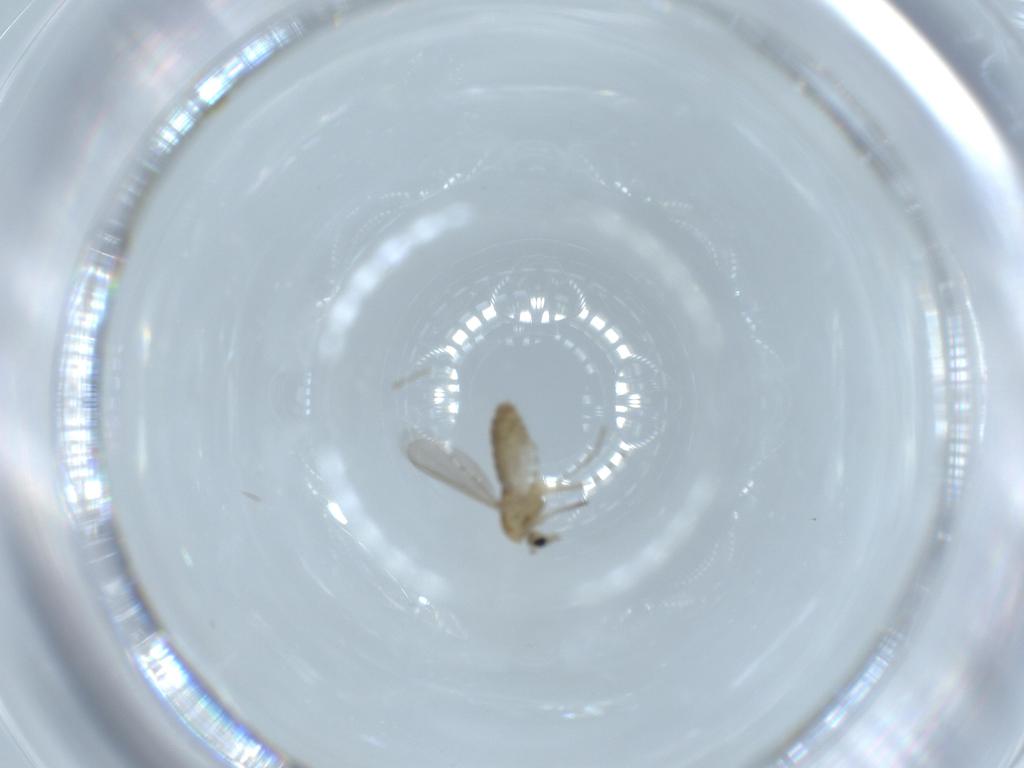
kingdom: Animalia
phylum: Arthropoda
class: Insecta
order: Diptera
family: Chironomidae
